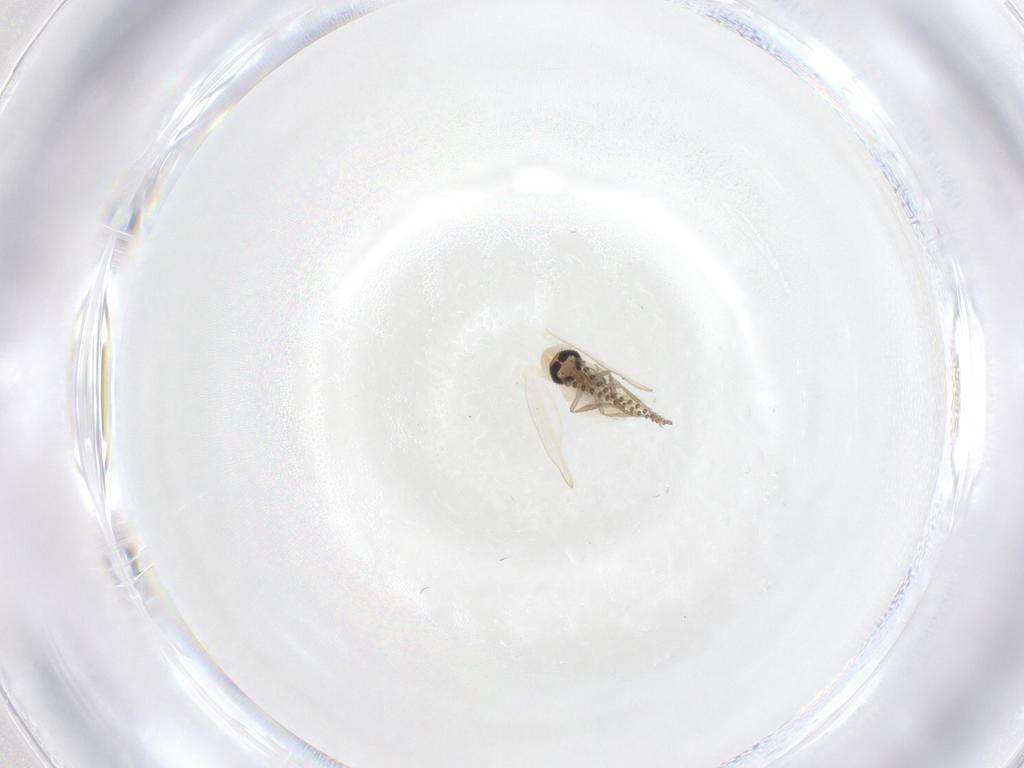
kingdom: Animalia
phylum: Arthropoda
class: Insecta
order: Diptera
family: Psychodidae
